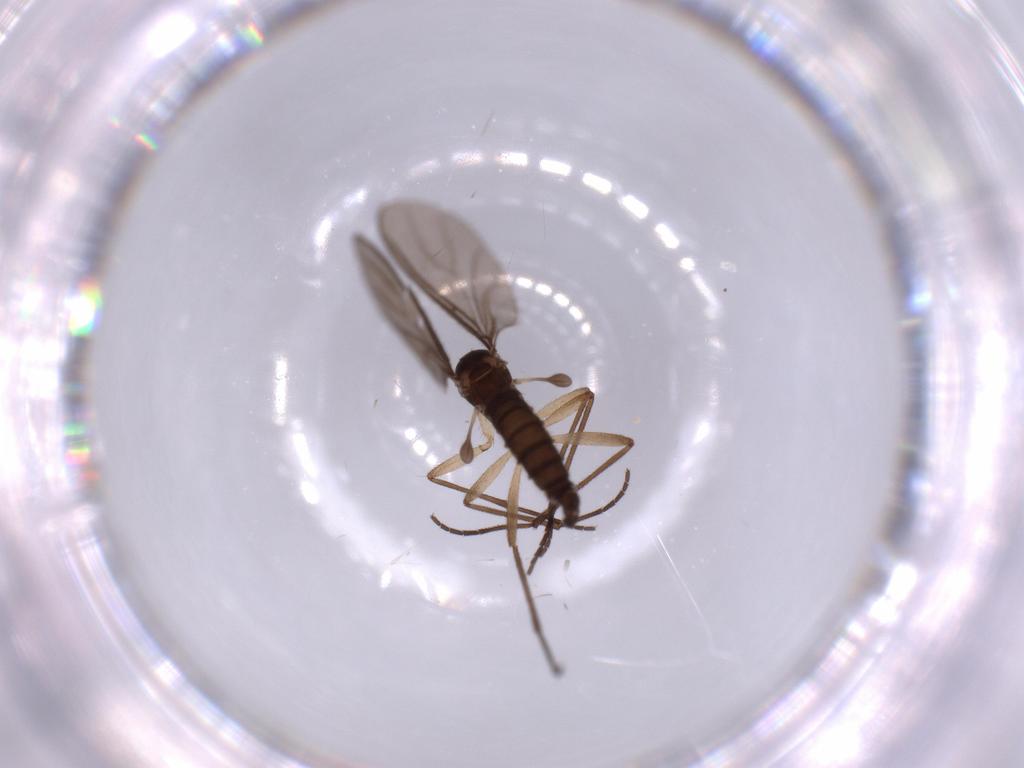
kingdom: Animalia
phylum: Arthropoda
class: Insecta
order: Diptera
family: Sciaridae
